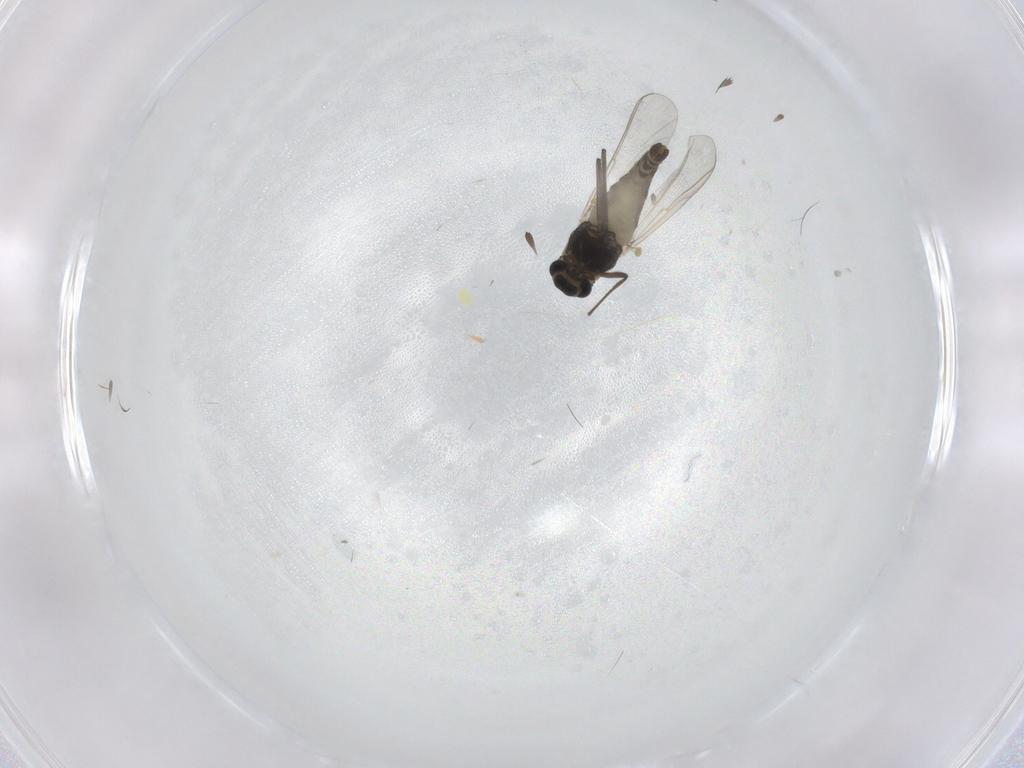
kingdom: Animalia
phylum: Arthropoda
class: Insecta
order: Diptera
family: Chironomidae
